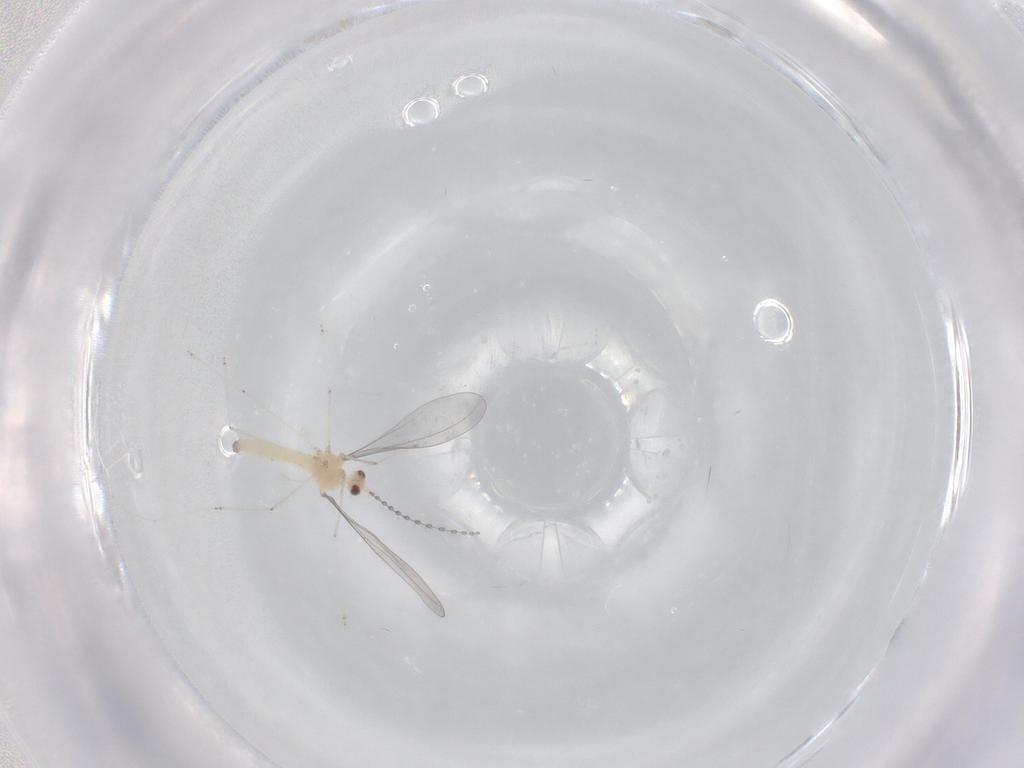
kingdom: Animalia
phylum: Arthropoda
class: Insecta
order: Diptera
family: Cecidomyiidae
